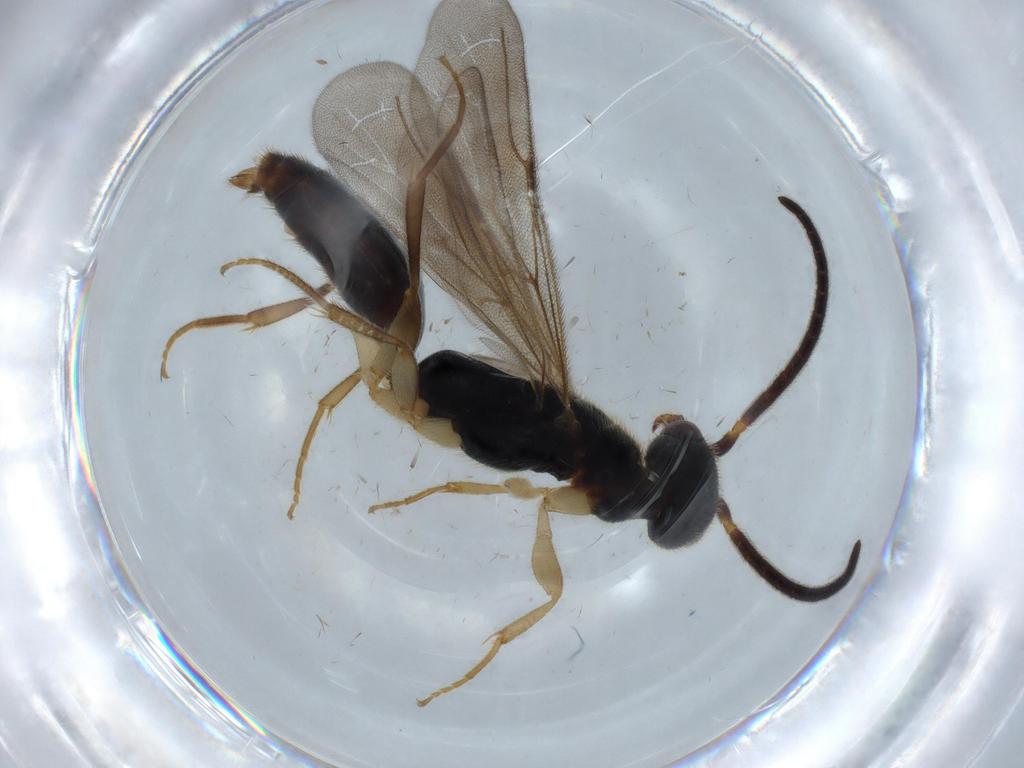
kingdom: Animalia
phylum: Arthropoda
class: Insecta
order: Hymenoptera
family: Bethylidae
